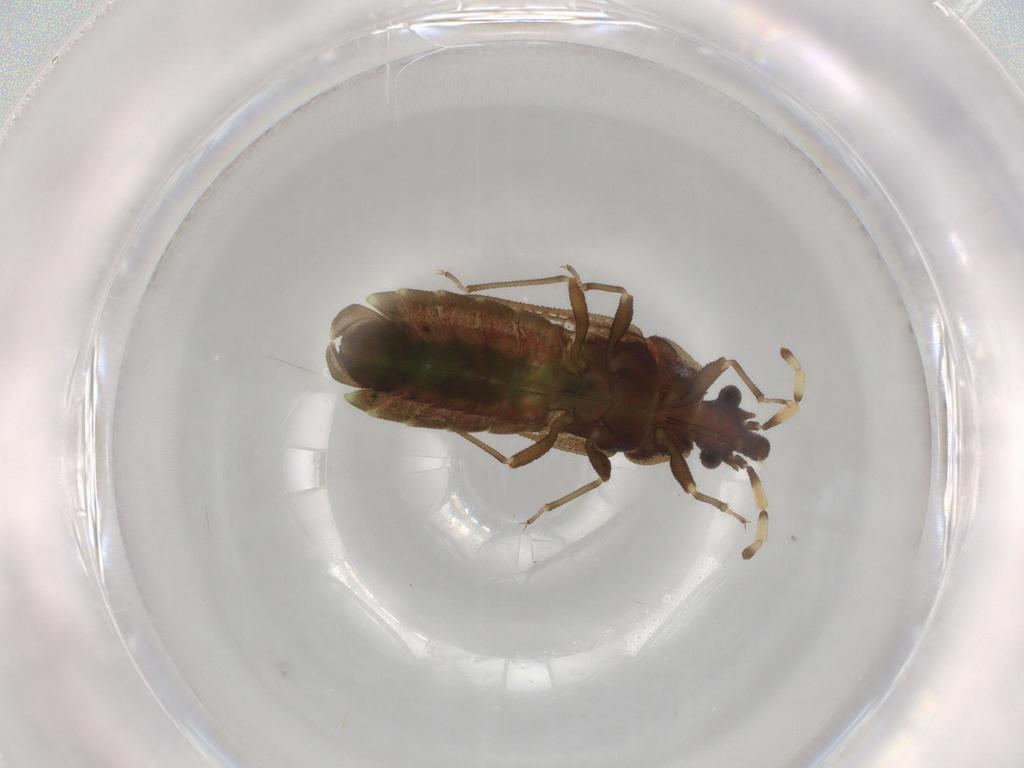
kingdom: Animalia
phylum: Arthropoda
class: Insecta
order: Hemiptera
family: Aradidae
